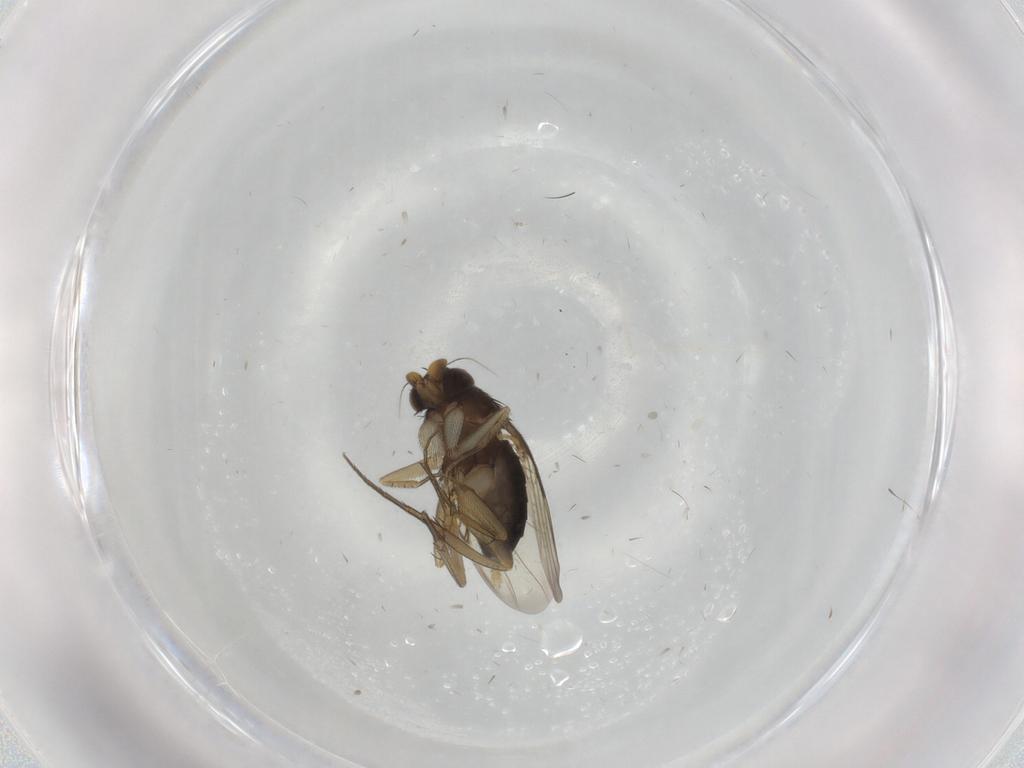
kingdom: Animalia
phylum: Arthropoda
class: Insecta
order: Diptera
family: Phoridae
